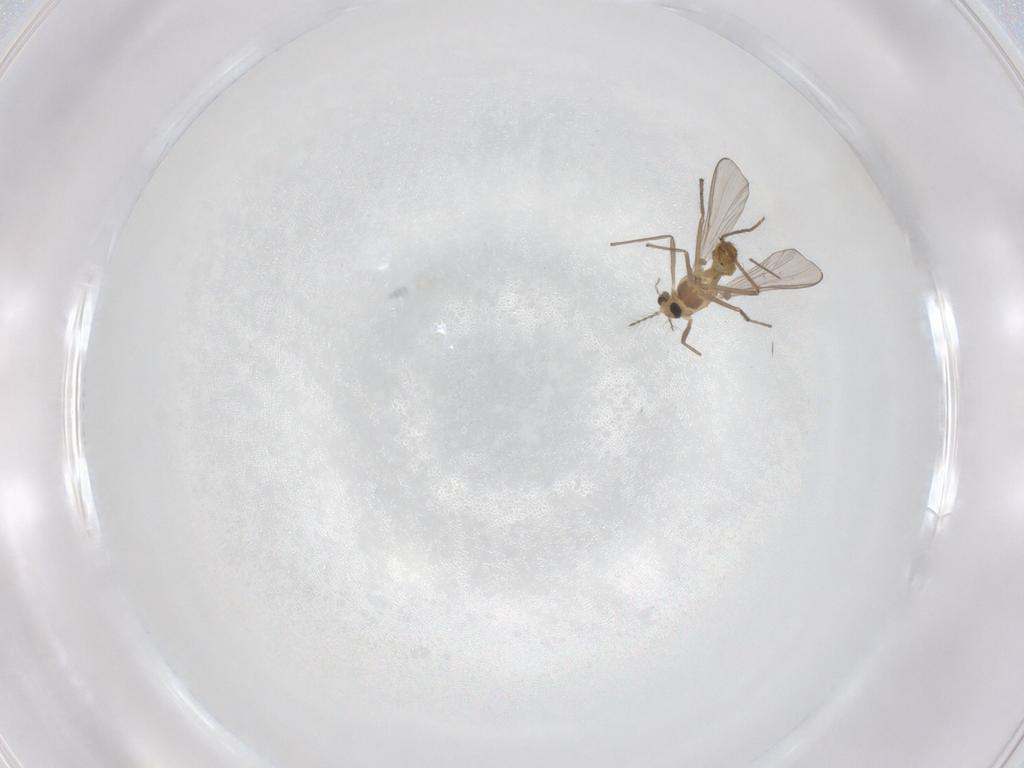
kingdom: Animalia
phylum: Arthropoda
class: Insecta
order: Diptera
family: Chironomidae
